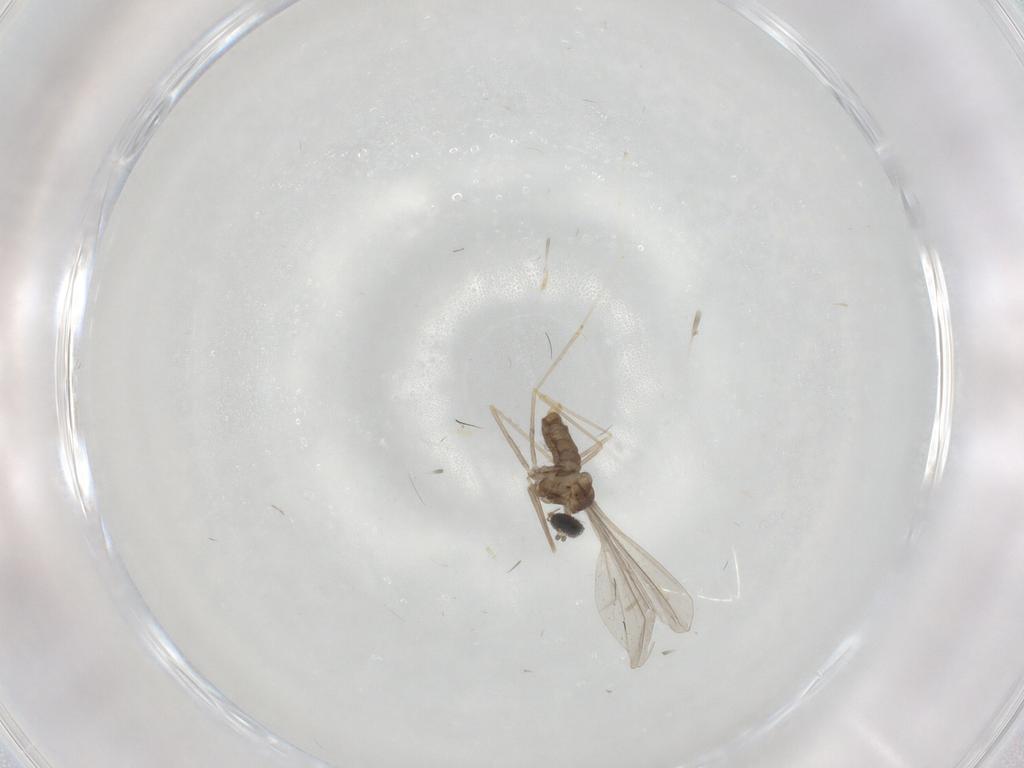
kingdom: Animalia
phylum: Arthropoda
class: Insecta
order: Diptera
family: Cecidomyiidae
